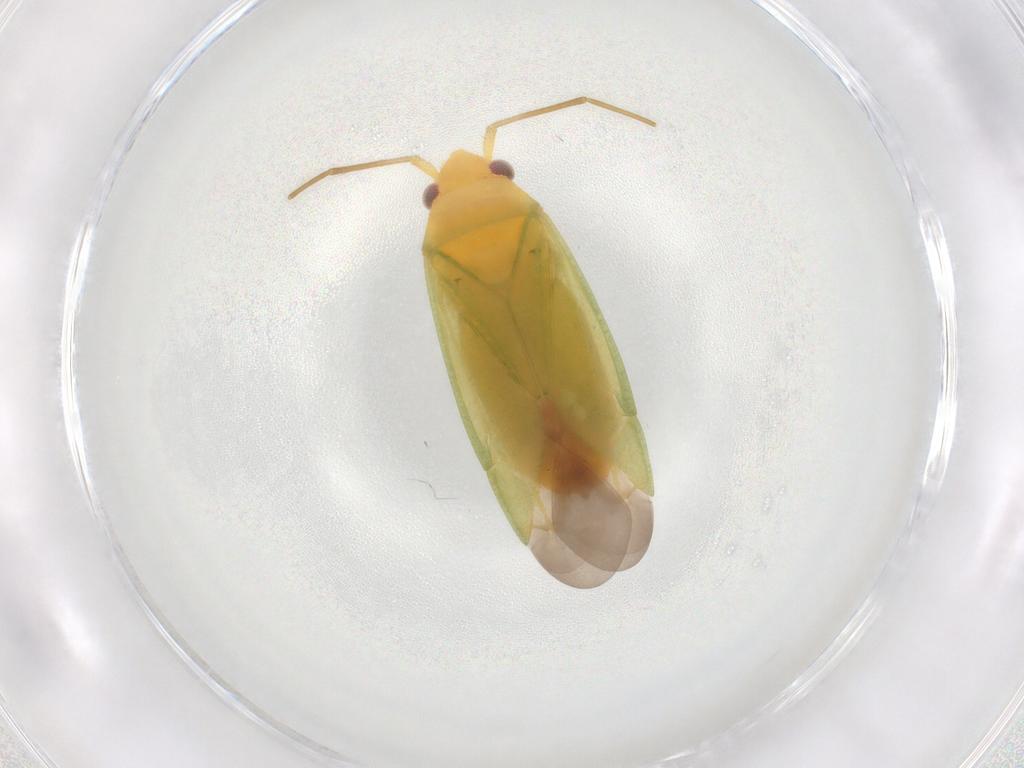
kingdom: Animalia
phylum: Arthropoda
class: Insecta
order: Hemiptera
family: Miridae
